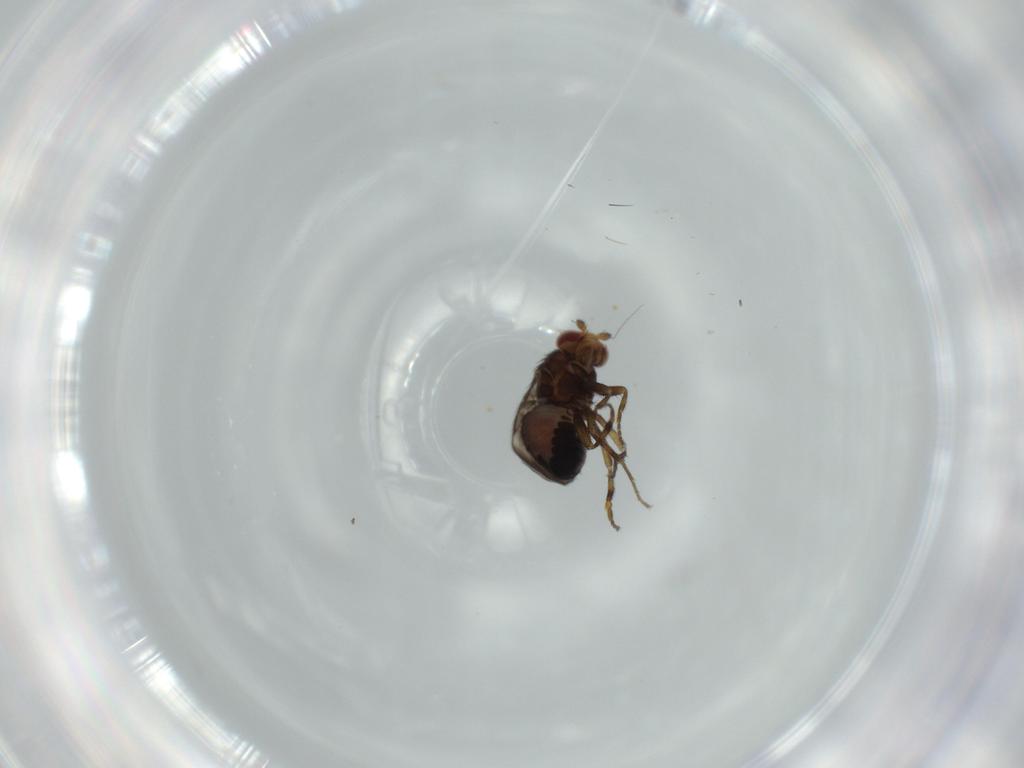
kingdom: Animalia
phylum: Arthropoda
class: Insecta
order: Diptera
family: Sphaeroceridae
